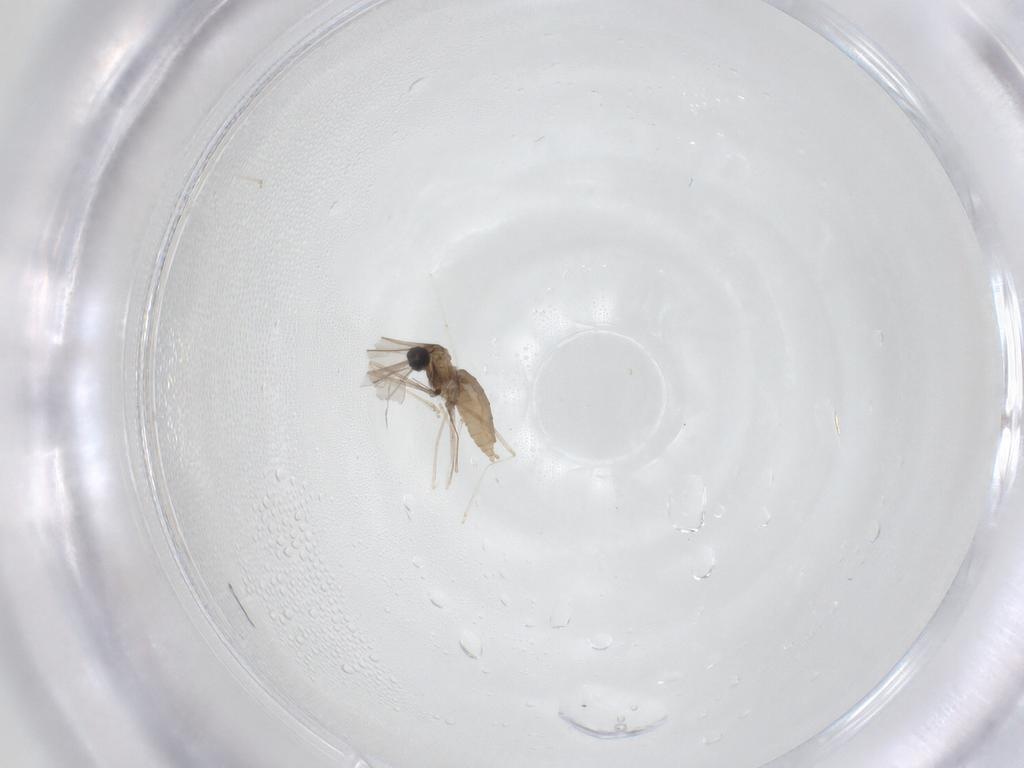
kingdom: Animalia
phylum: Arthropoda
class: Insecta
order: Diptera
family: Cecidomyiidae
